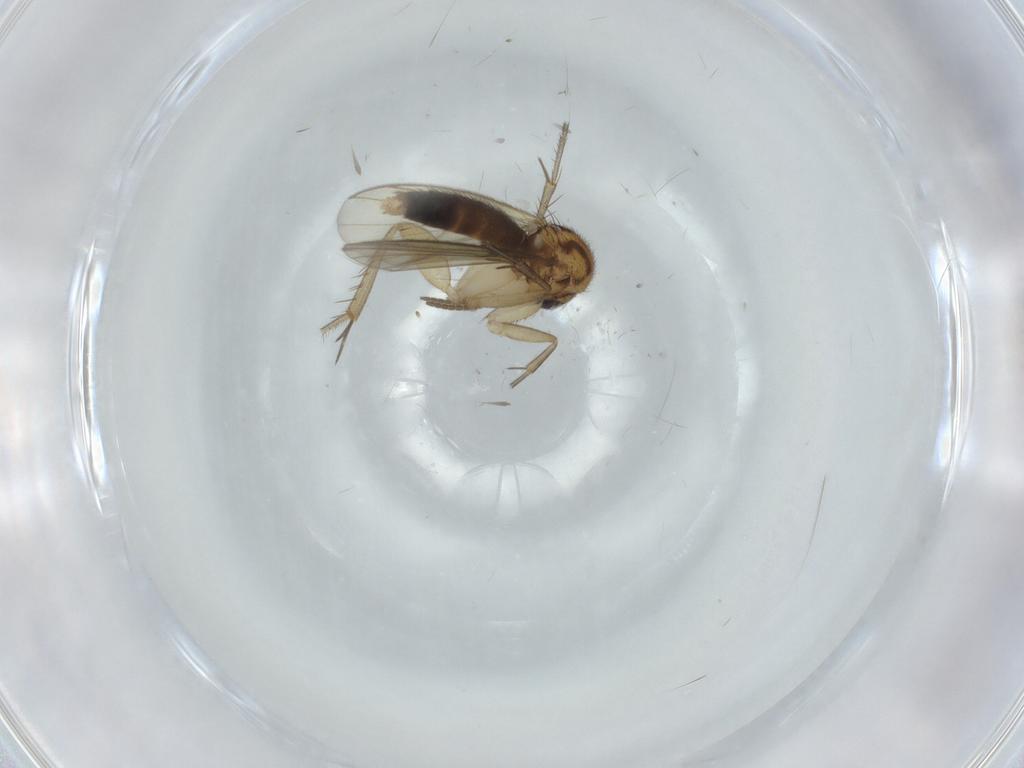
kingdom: Animalia
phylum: Arthropoda
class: Insecta
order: Diptera
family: Mycetophilidae
